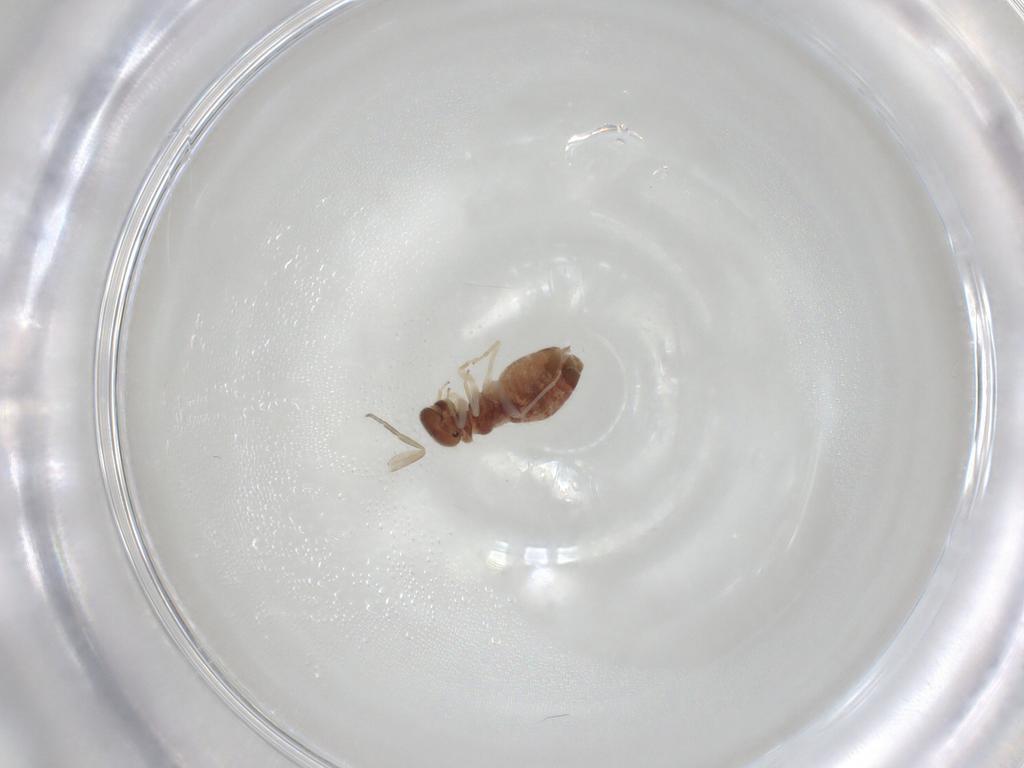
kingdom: Animalia
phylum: Arthropoda
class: Insecta
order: Psocodea
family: Archipsocidae
